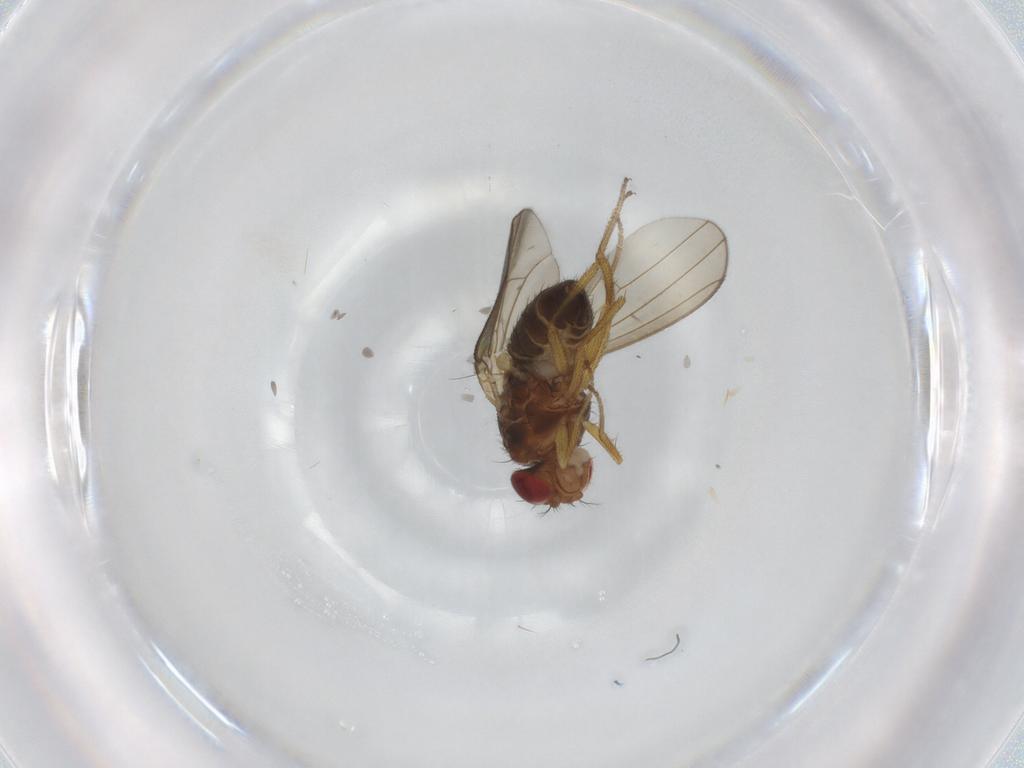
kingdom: Animalia
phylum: Arthropoda
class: Insecta
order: Diptera
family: Drosophilidae
